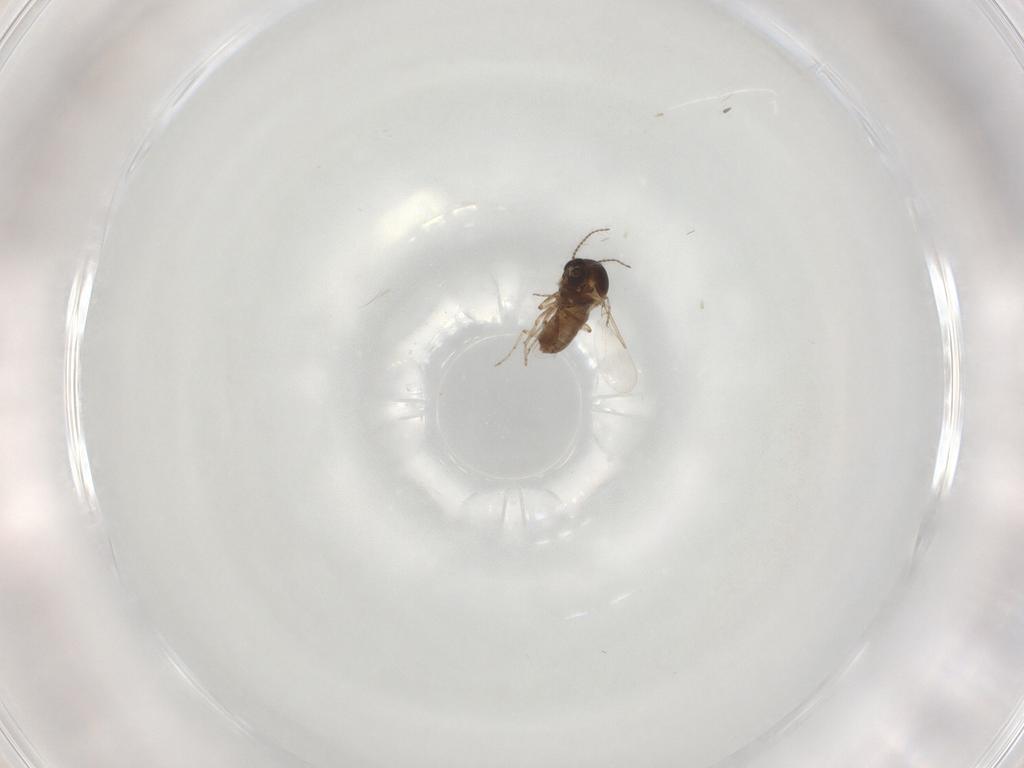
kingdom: Animalia
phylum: Arthropoda
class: Insecta
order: Diptera
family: Ceratopogonidae
